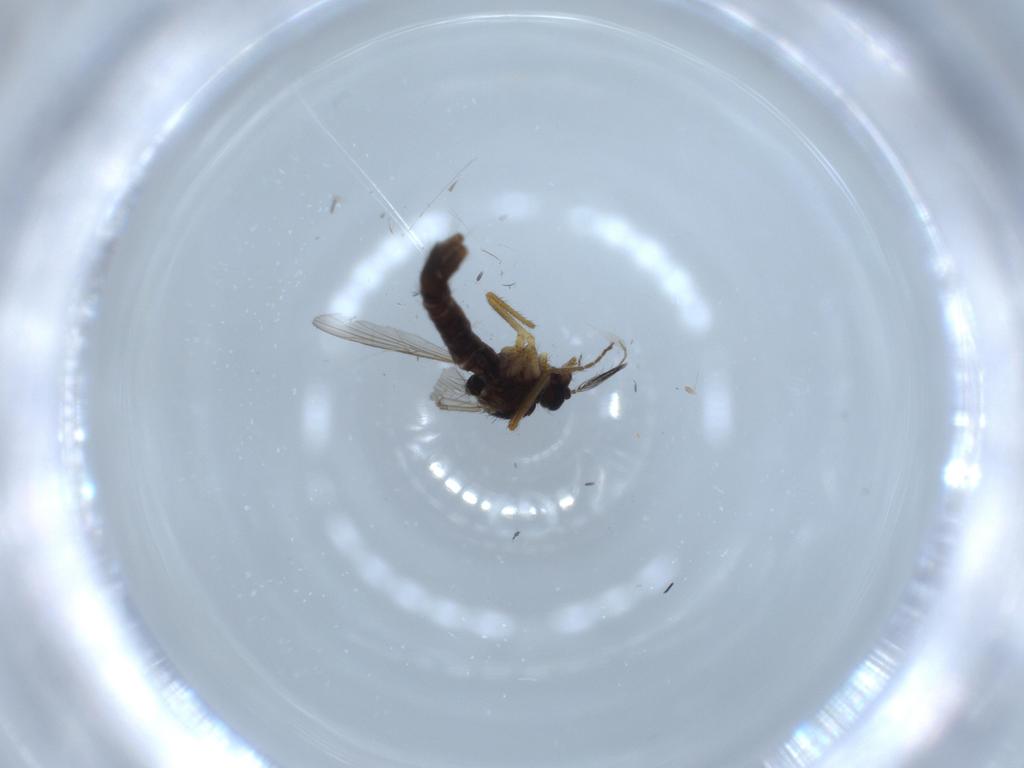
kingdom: Animalia
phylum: Arthropoda
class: Insecta
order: Diptera
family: Ceratopogonidae
